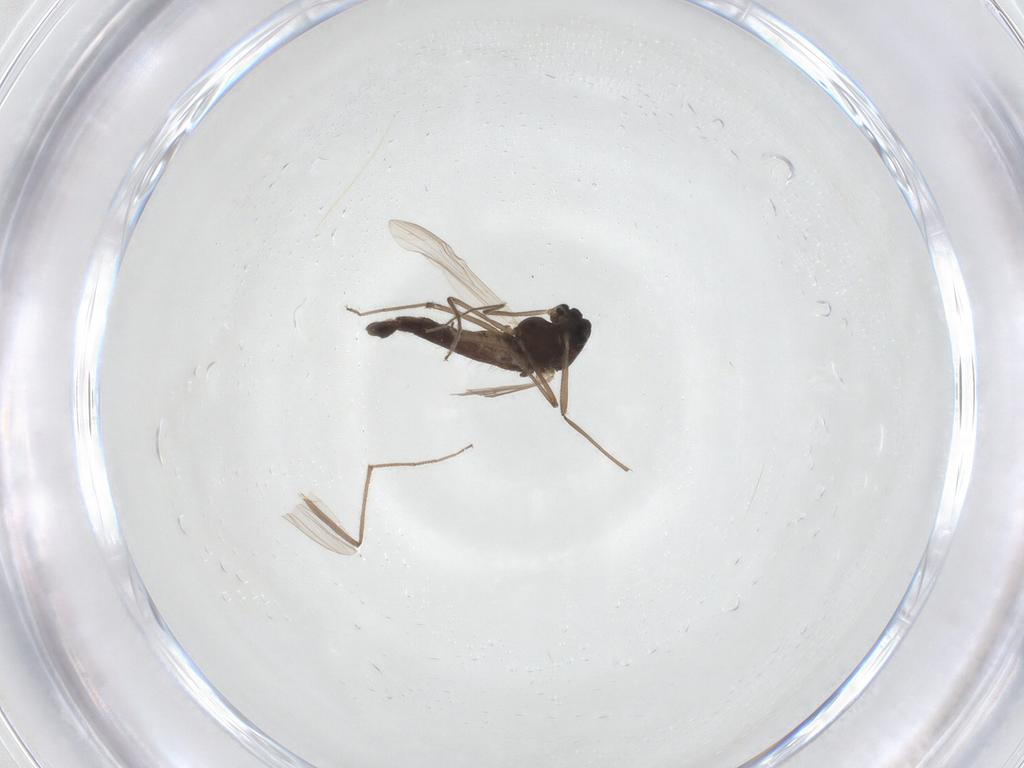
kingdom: Animalia
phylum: Arthropoda
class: Insecta
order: Diptera
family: Chironomidae
